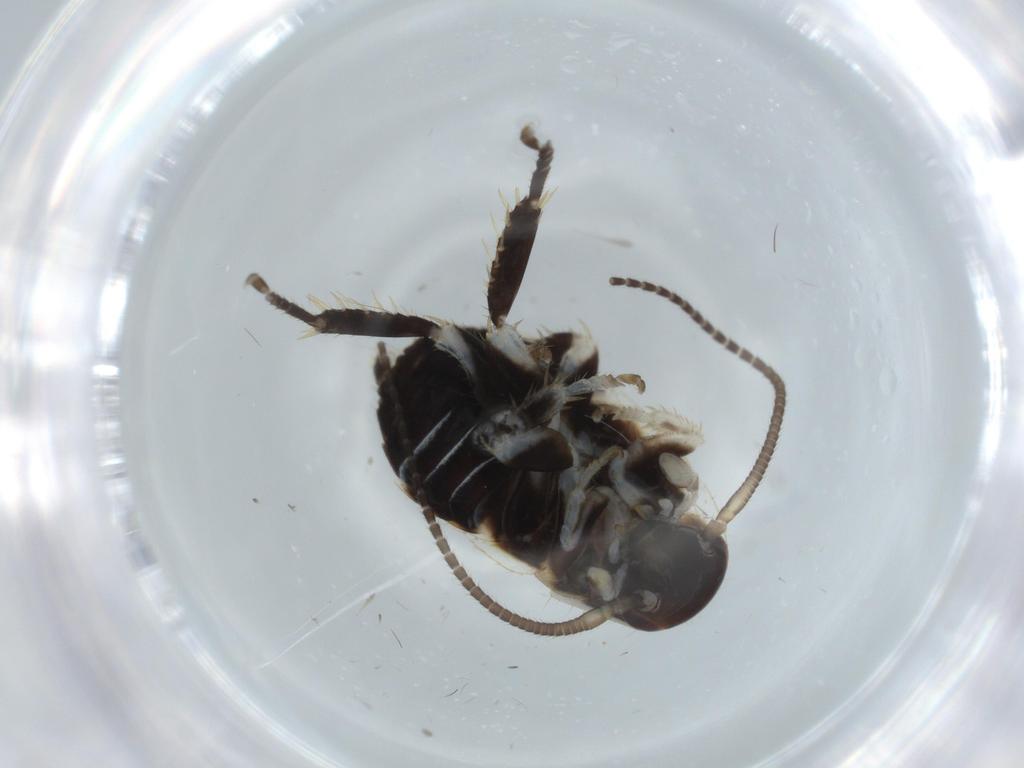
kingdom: Animalia
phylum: Arthropoda
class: Insecta
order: Blattodea
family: Ectobiidae
